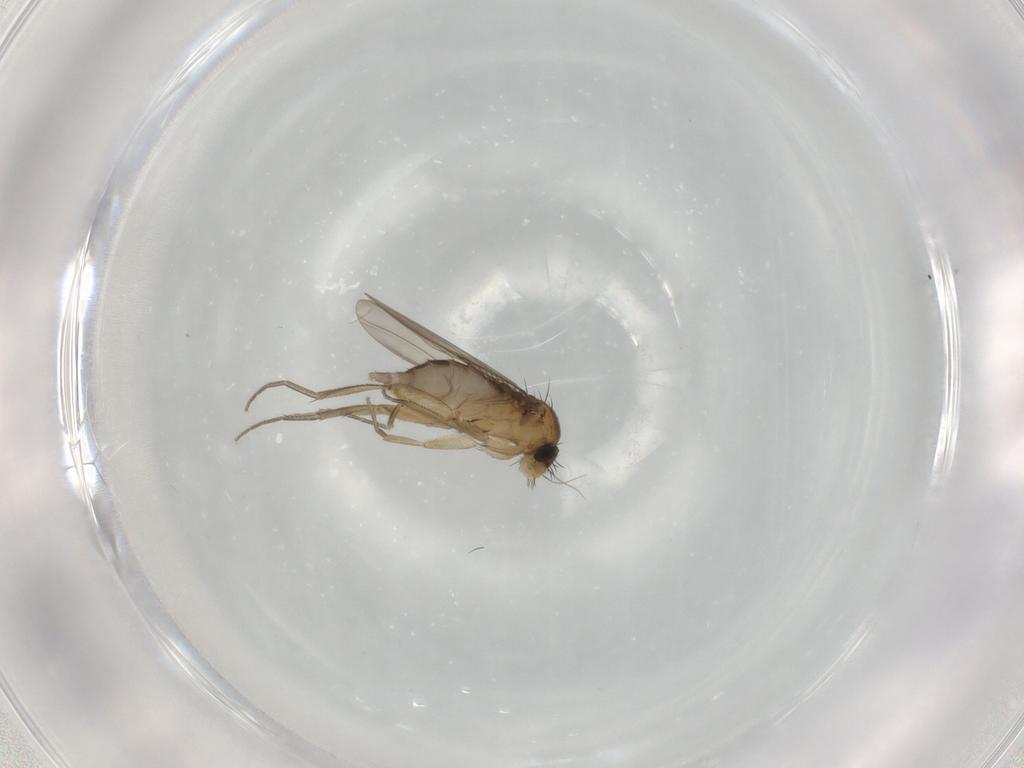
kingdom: Animalia
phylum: Arthropoda
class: Insecta
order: Diptera
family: Phoridae
